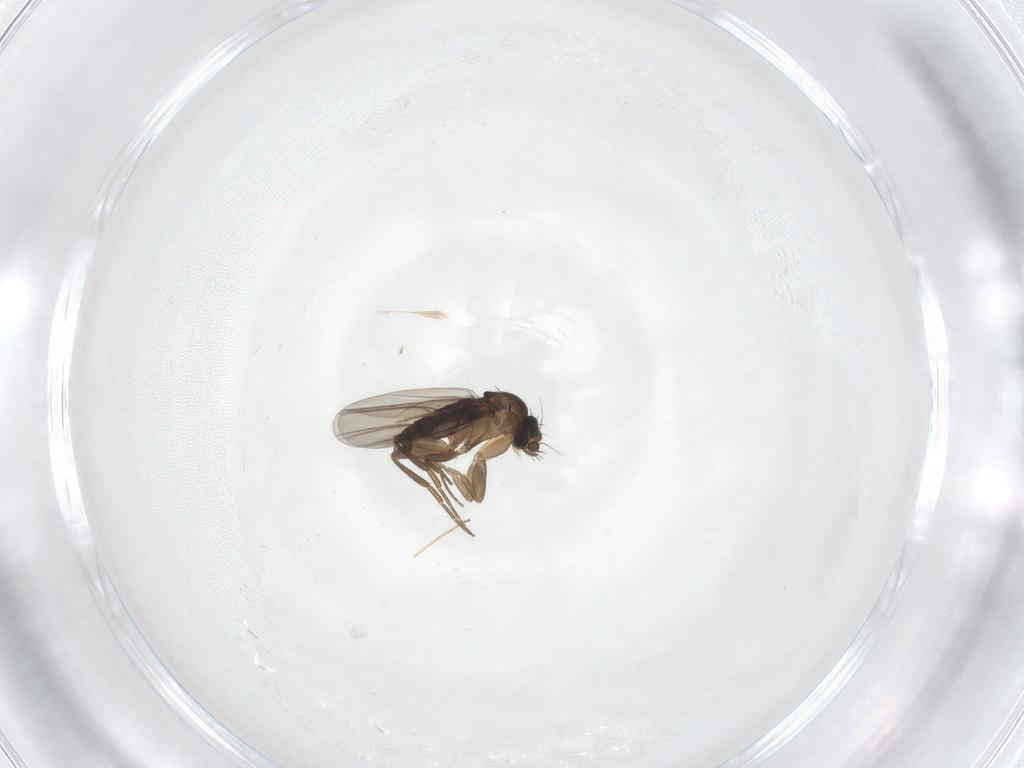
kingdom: Animalia
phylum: Arthropoda
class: Insecta
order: Diptera
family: Phoridae
